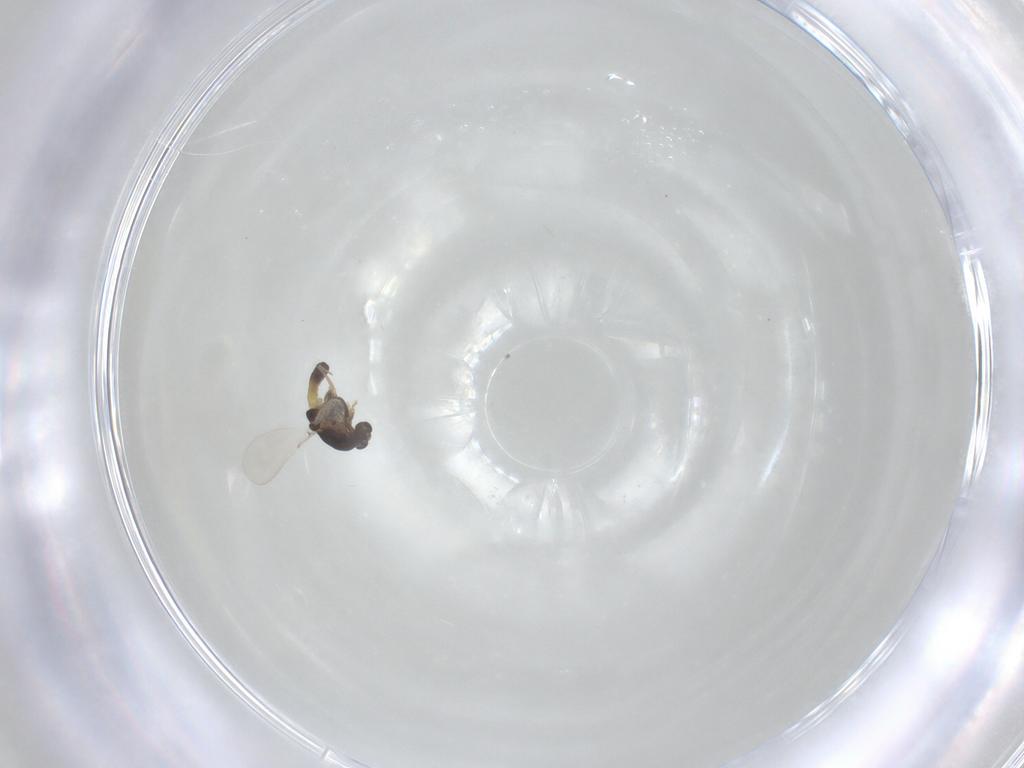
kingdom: Animalia
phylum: Arthropoda
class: Insecta
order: Diptera
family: Chironomidae
